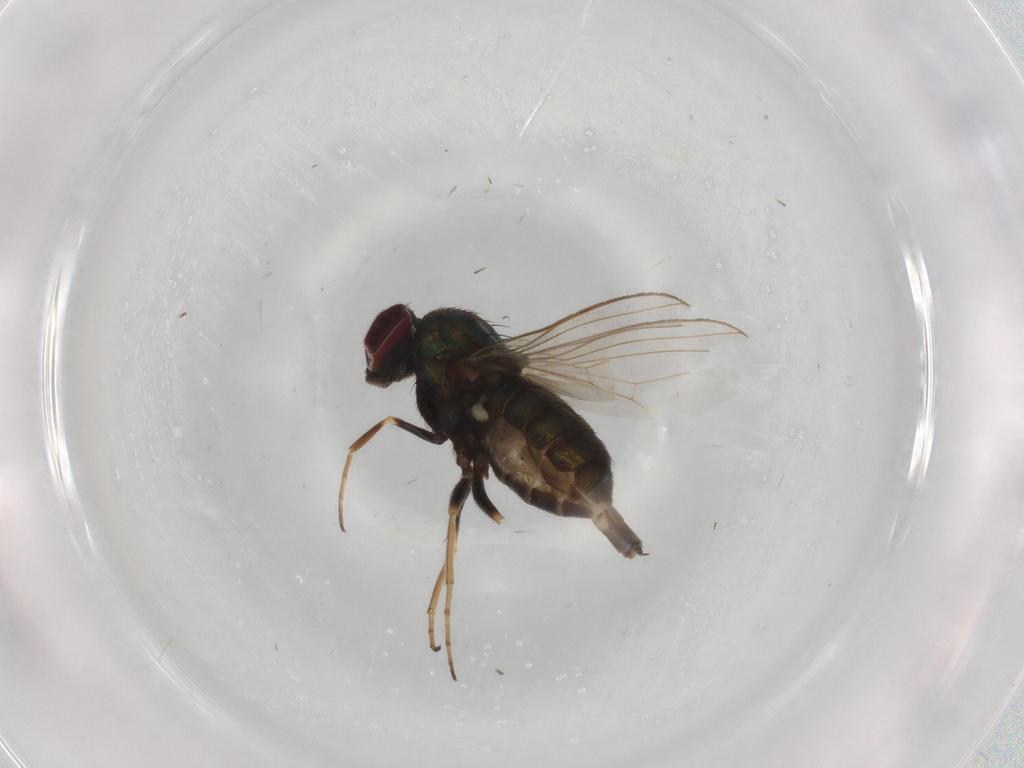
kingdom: Animalia
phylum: Arthropoda
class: Insecta
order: Diptera
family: Dolichopodidae
